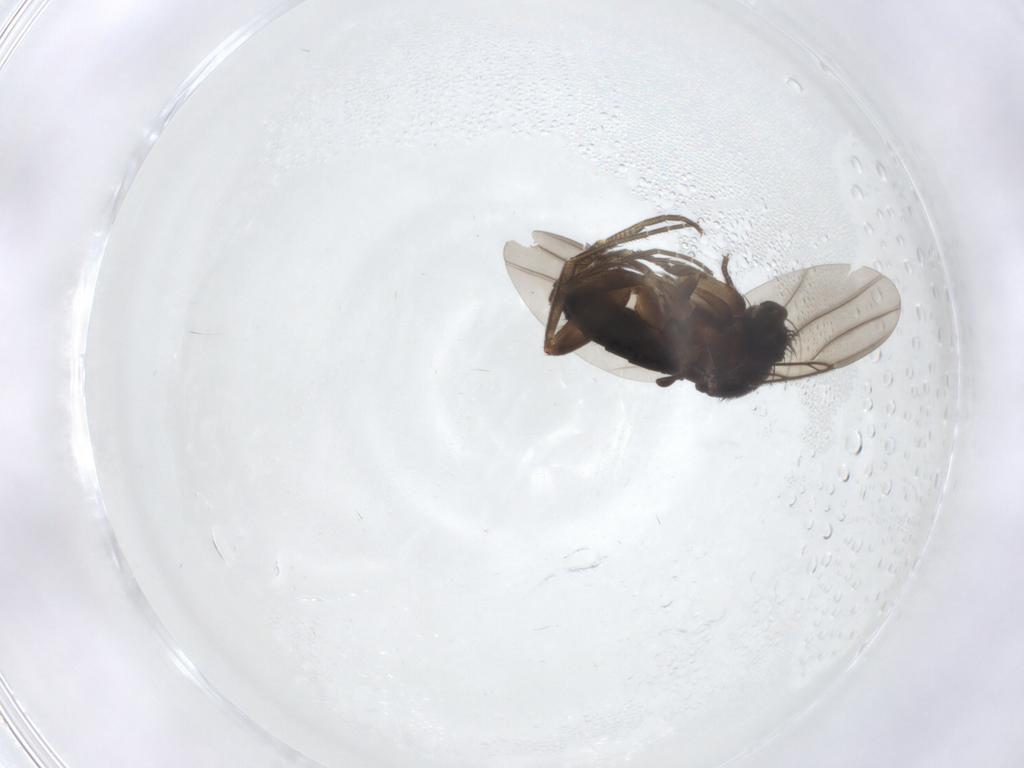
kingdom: Animalia
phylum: Arthropoda
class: Insecta
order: Diptera
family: Phoridae
